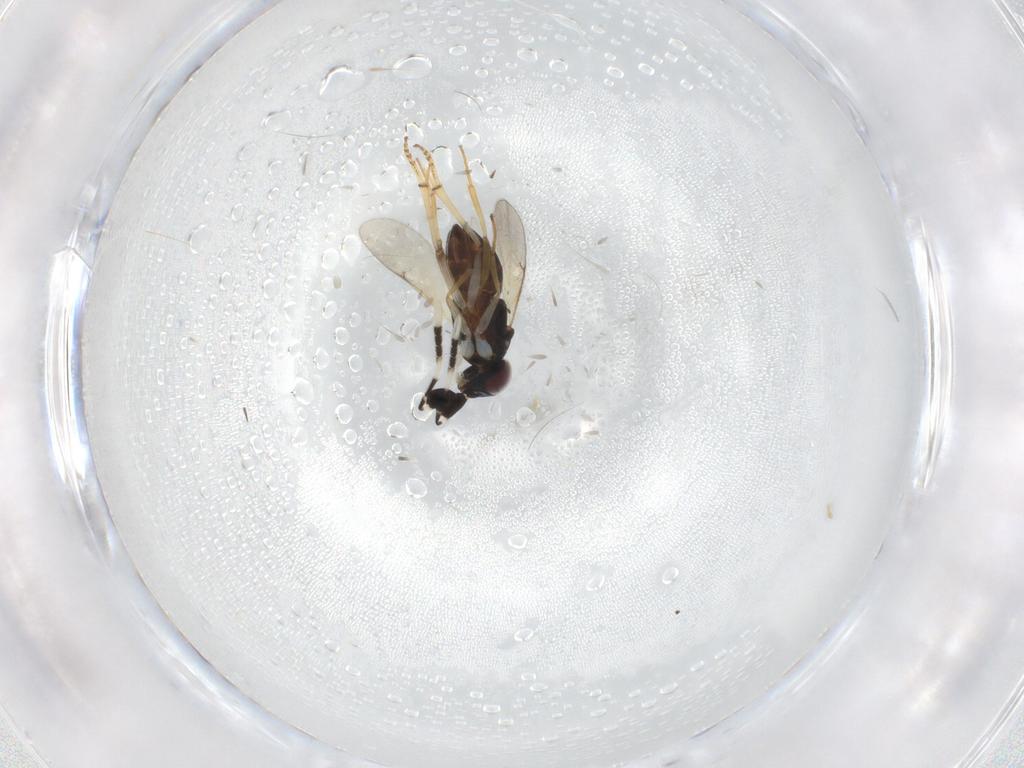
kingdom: Animalia
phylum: Arthropoda
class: Insecta
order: Hymenoptera
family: Encyrtidae
